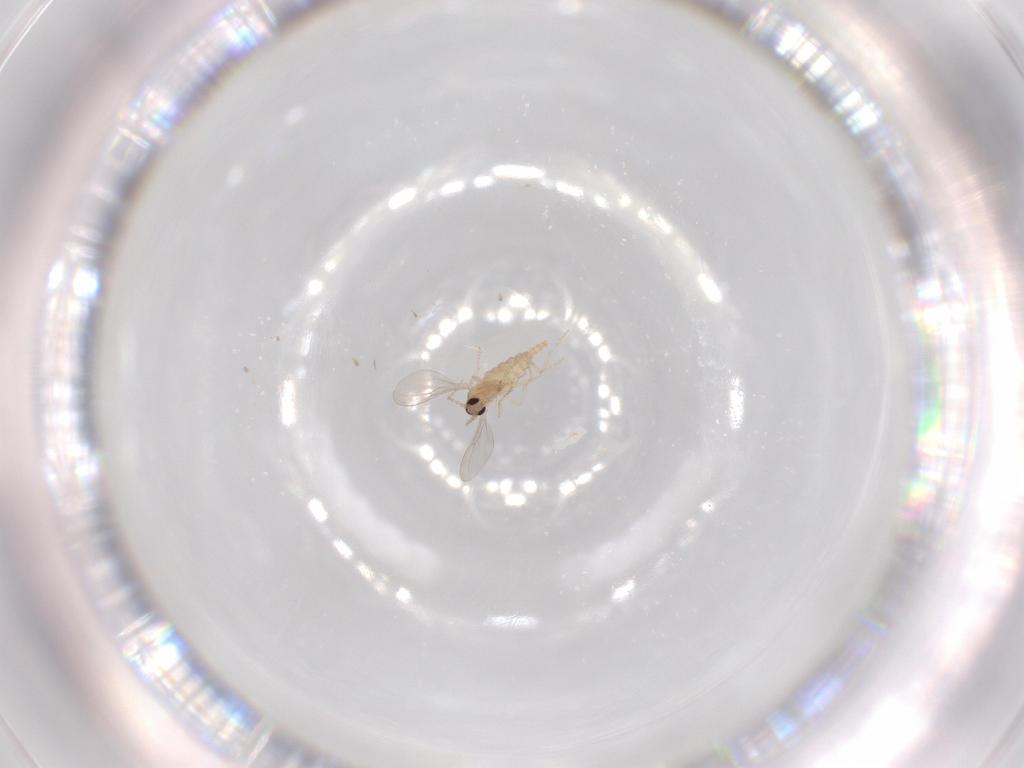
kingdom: Animalia
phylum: Arthropoda
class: Insecta
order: Diptera
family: Cecidomyiidae
